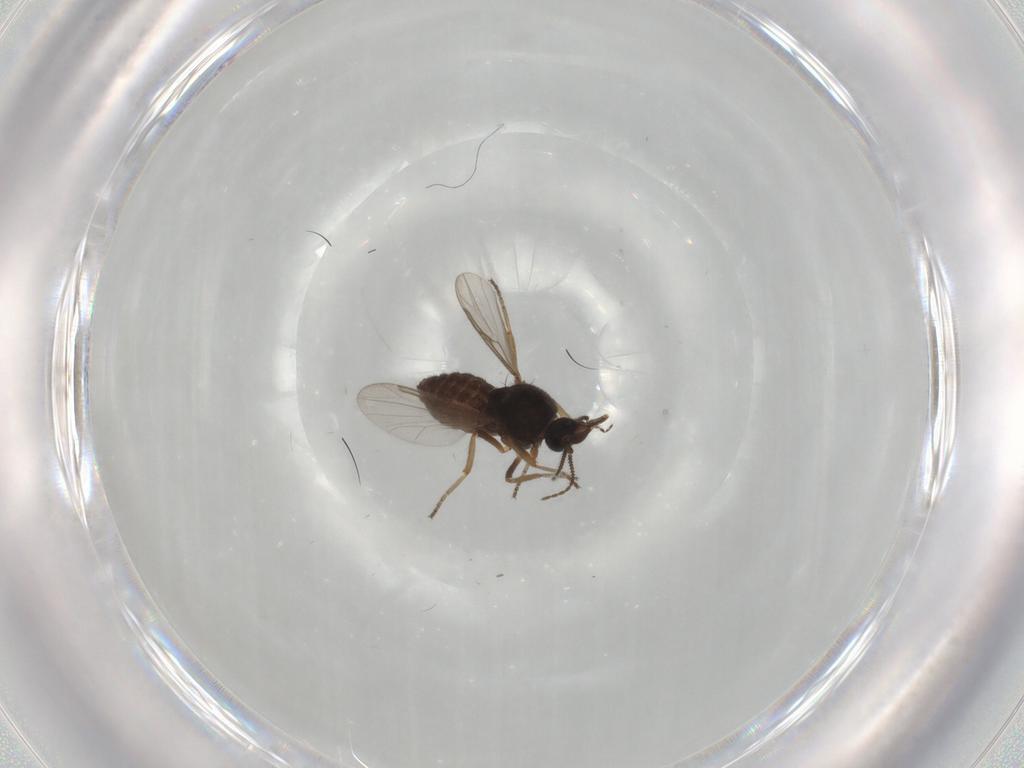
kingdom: Animalia
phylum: Arthropoda
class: Insecta
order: Diptera
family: Ceratopogonidae
